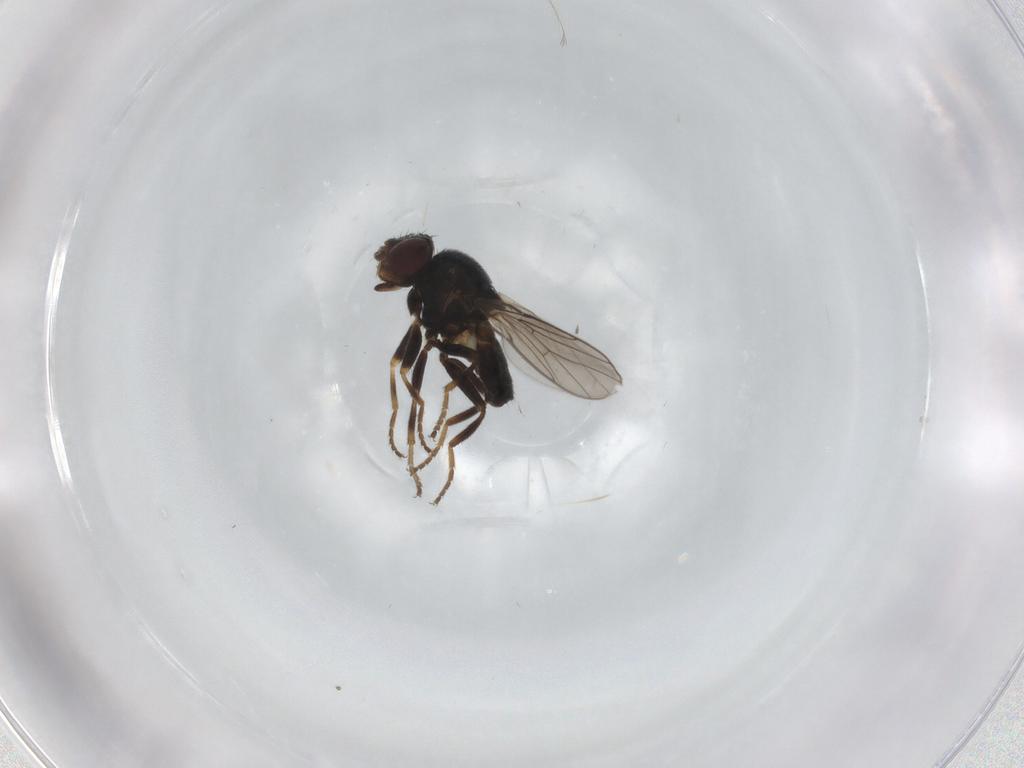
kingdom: Animalia
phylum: Arthropoda
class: Insecta
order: Diptera
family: Chloropidae
